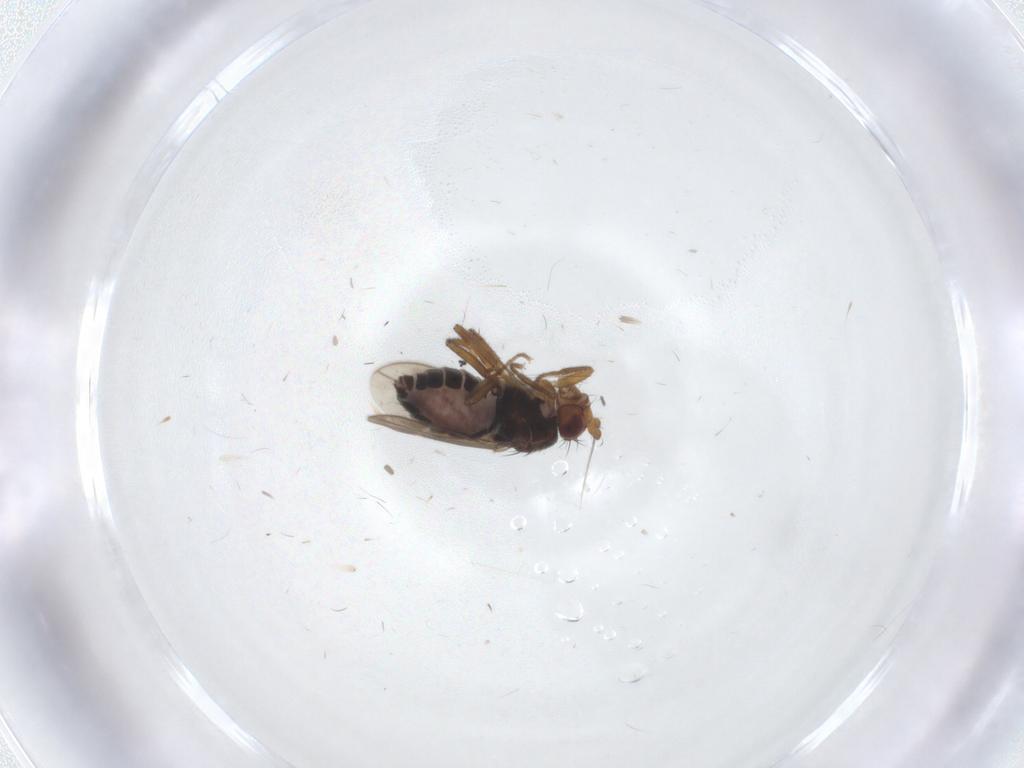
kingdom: Animalia
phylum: Arthropoda
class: Insecta
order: Diptera
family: Sphaeroceridae
